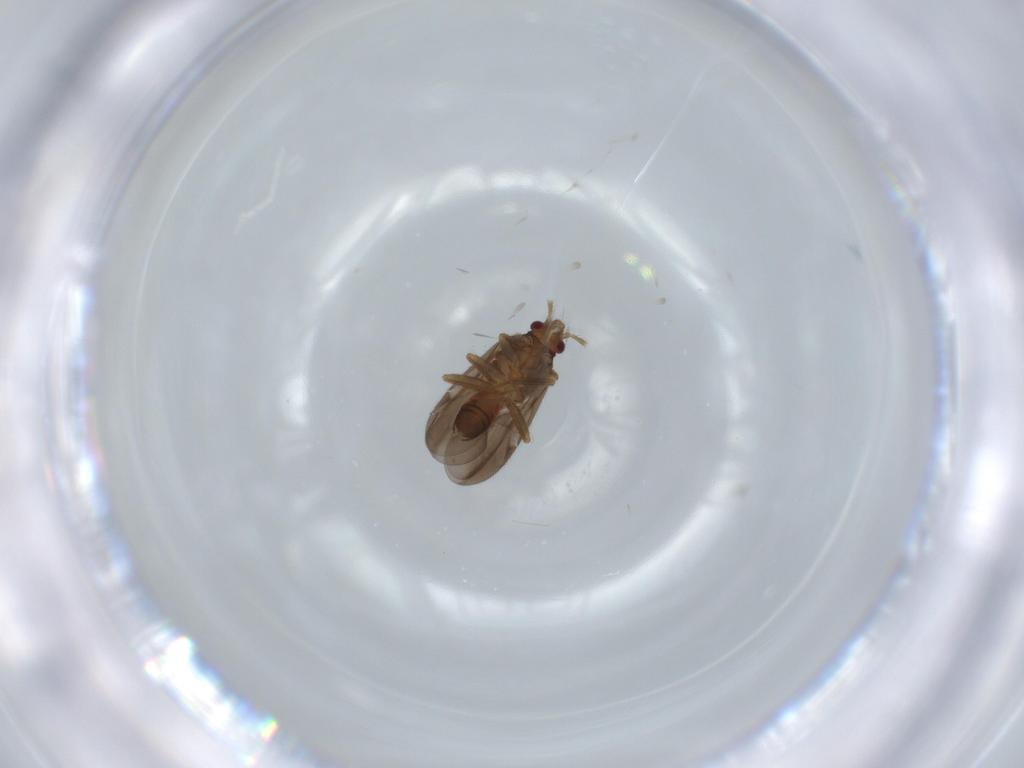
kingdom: Animalia
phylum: Arthropoda
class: Insecta
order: Hemiptera
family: Ceratocombidae
